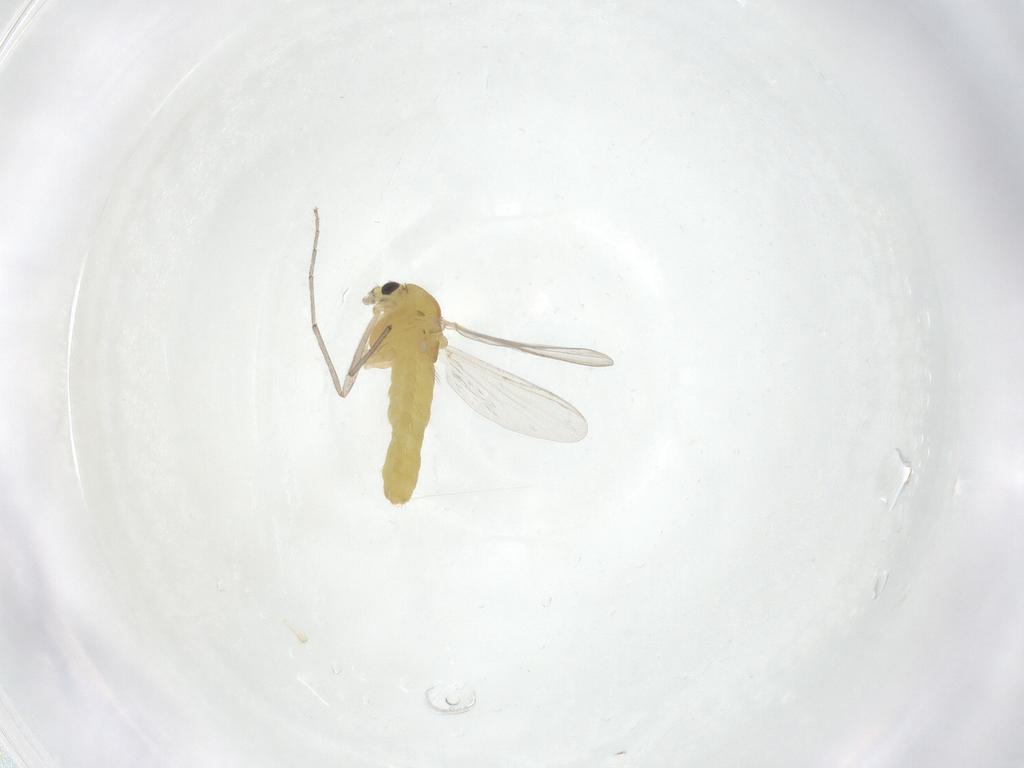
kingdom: Animalia
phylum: Arthropoda
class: Insecta
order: Diptera
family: Chironomidae
